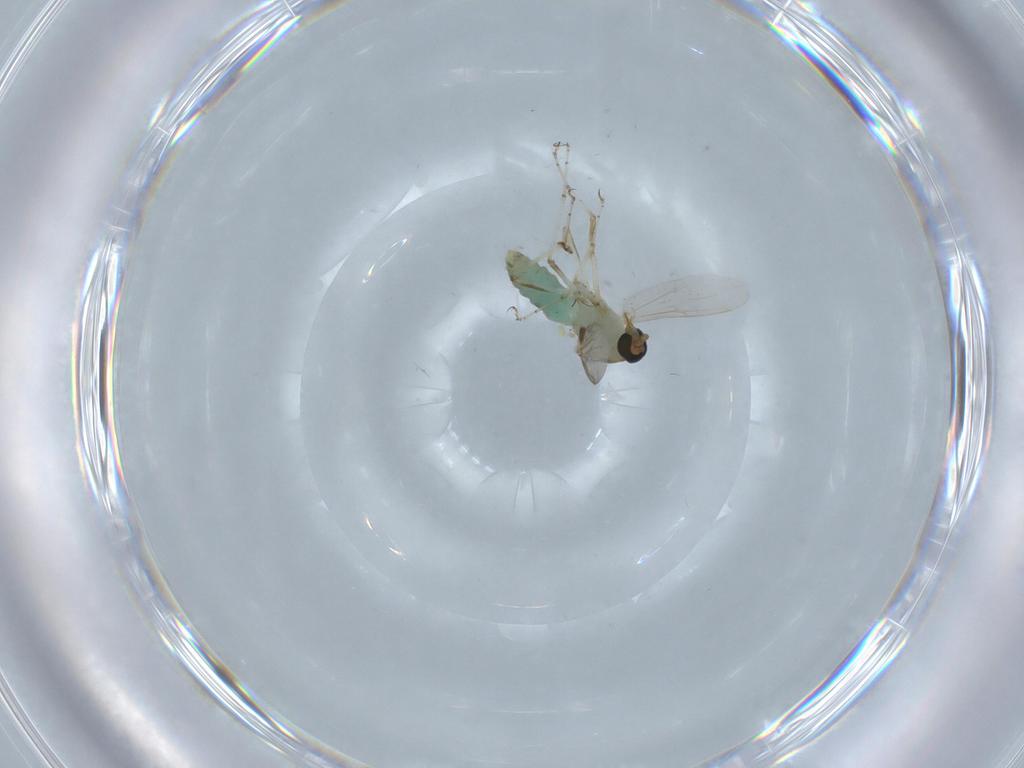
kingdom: Animalia
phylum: Arthropoda
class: Insecta
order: Diptera
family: Ceratopogonidae
